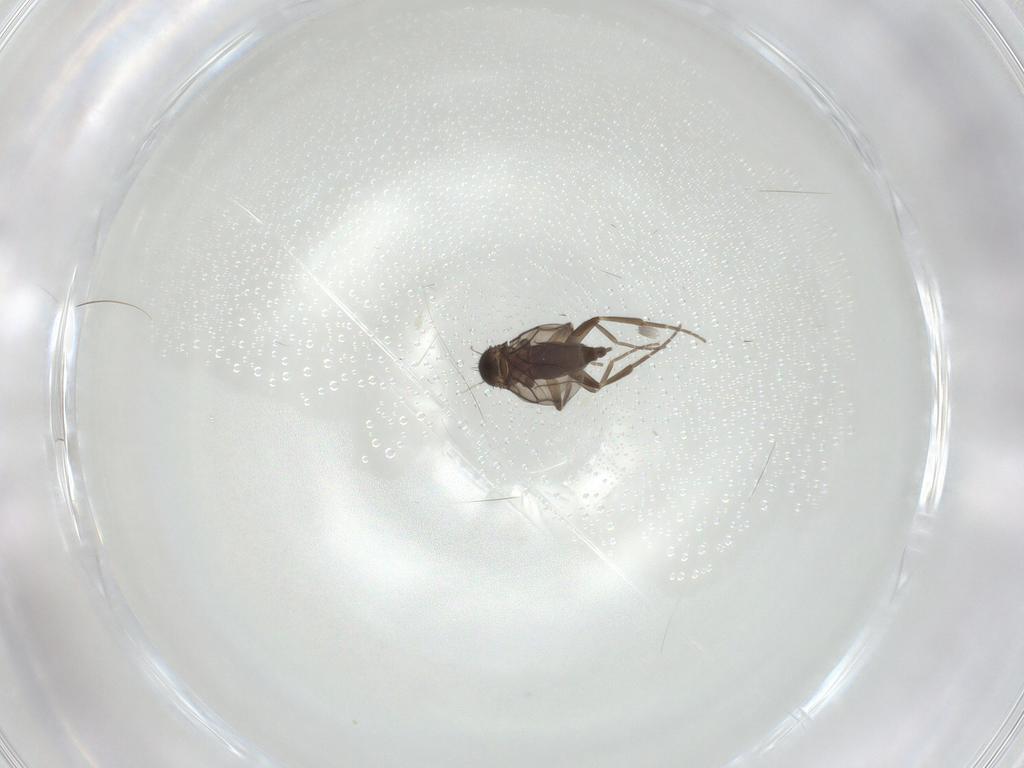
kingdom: Animalia
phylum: Arthropoda
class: Insecta
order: Diptera
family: Phoridae
